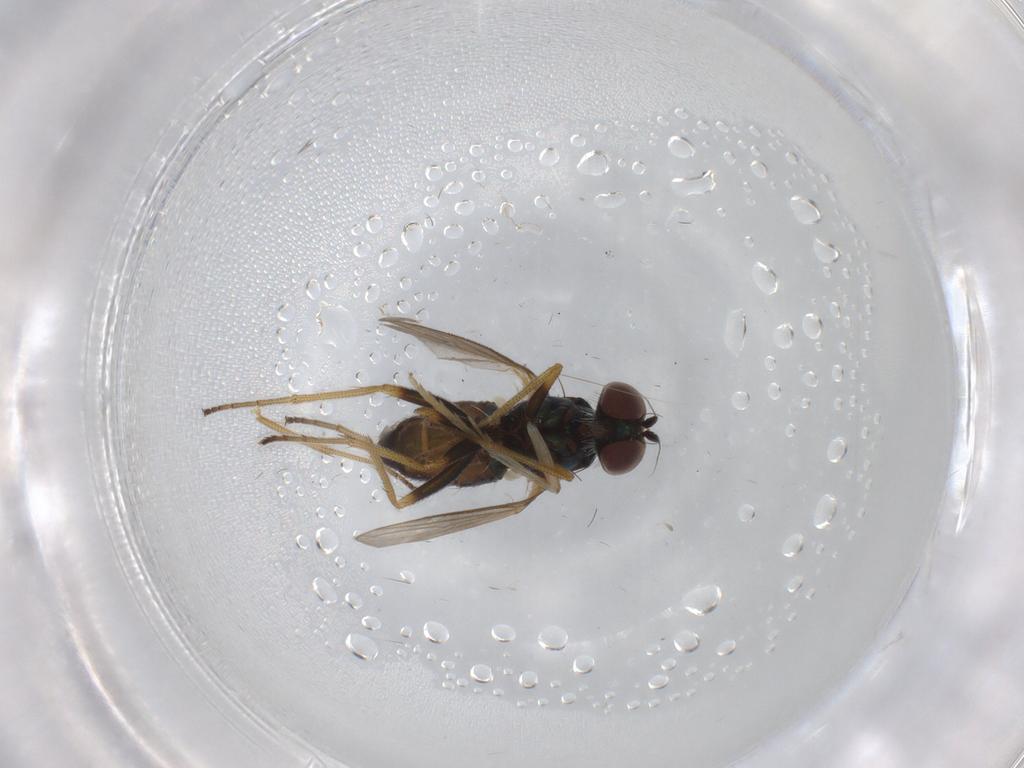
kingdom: Animalia
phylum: Arthropoda
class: Insecta
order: Diptera
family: Dolichopodidae
